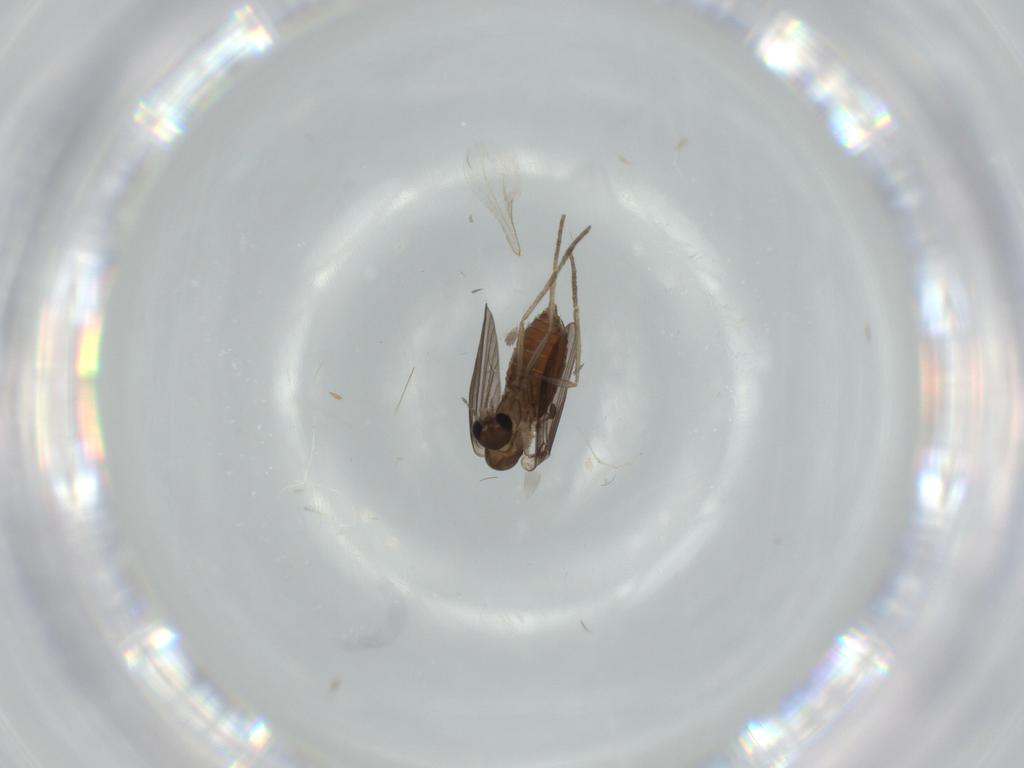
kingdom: Animalia
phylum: Arthropoda
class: Insecta
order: Diptera
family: Psychodidae
